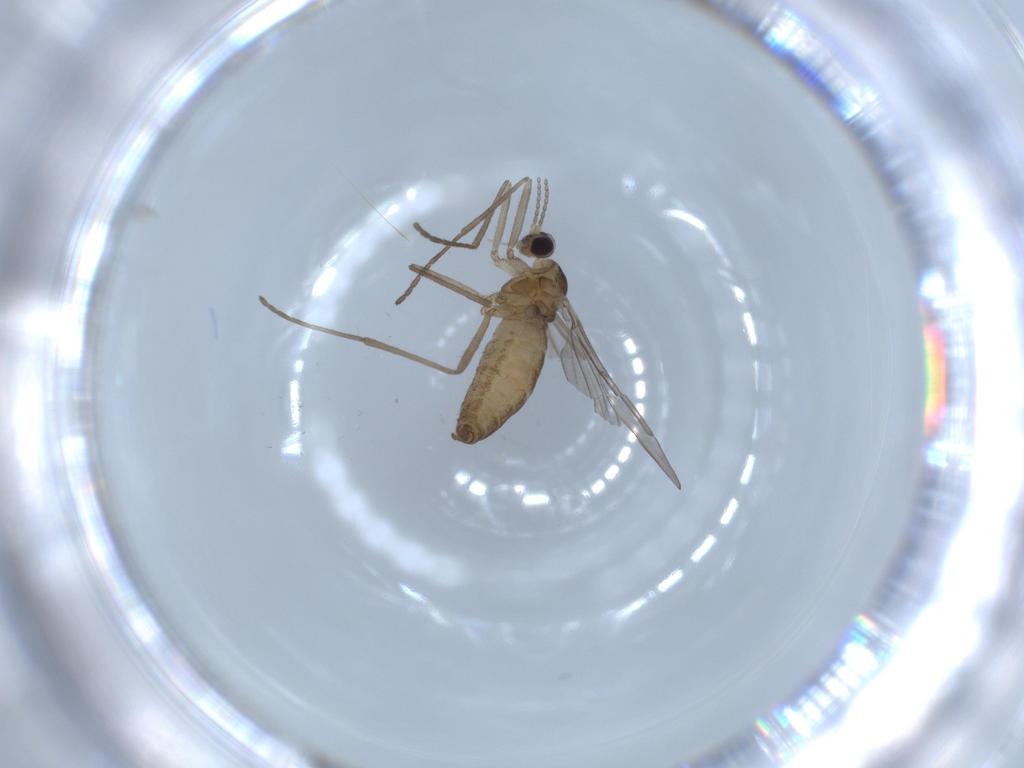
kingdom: Animalia
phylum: Arthropoda
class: Insecta
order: Diptera
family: Cecidomyiidae
